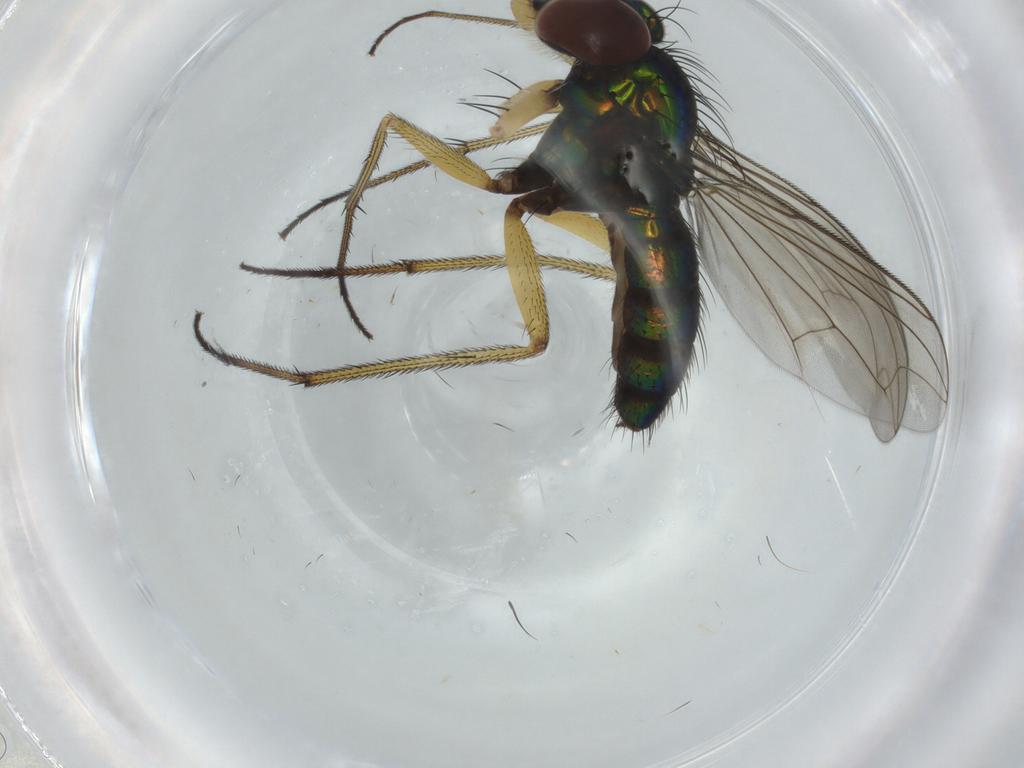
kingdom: Animalia
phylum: Arthropoda
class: Insecta
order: Diptera
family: Dolichopodidae
